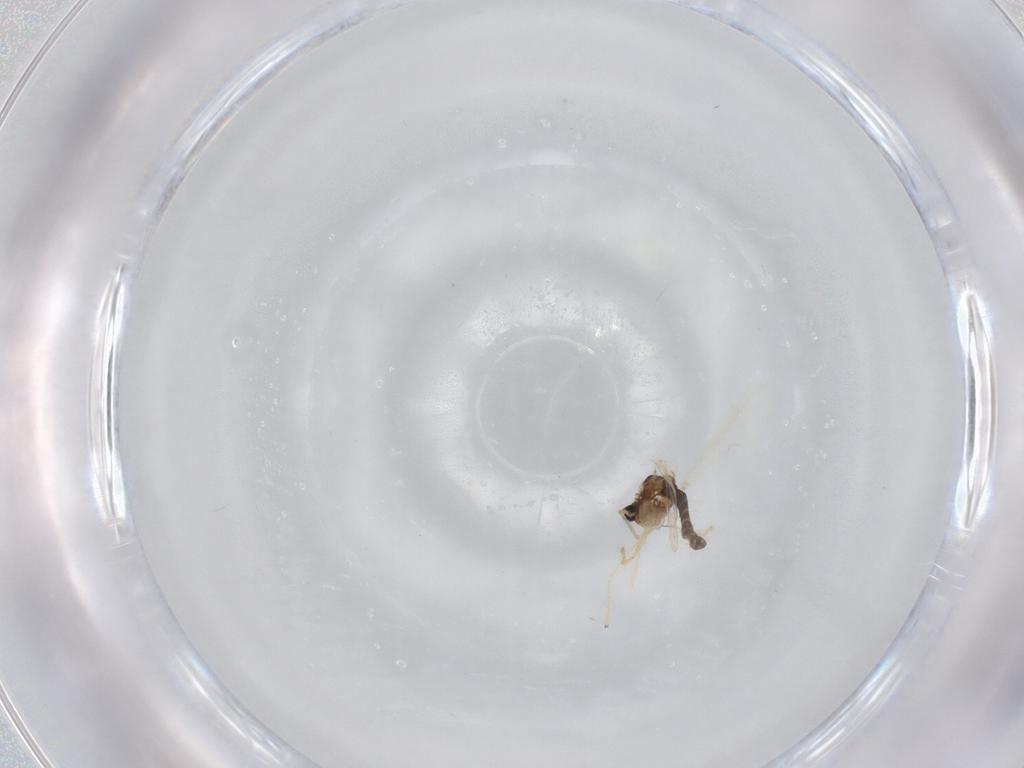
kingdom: Animalia
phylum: Arthropoda
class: Insecta
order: Diptera
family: Chironomidae
